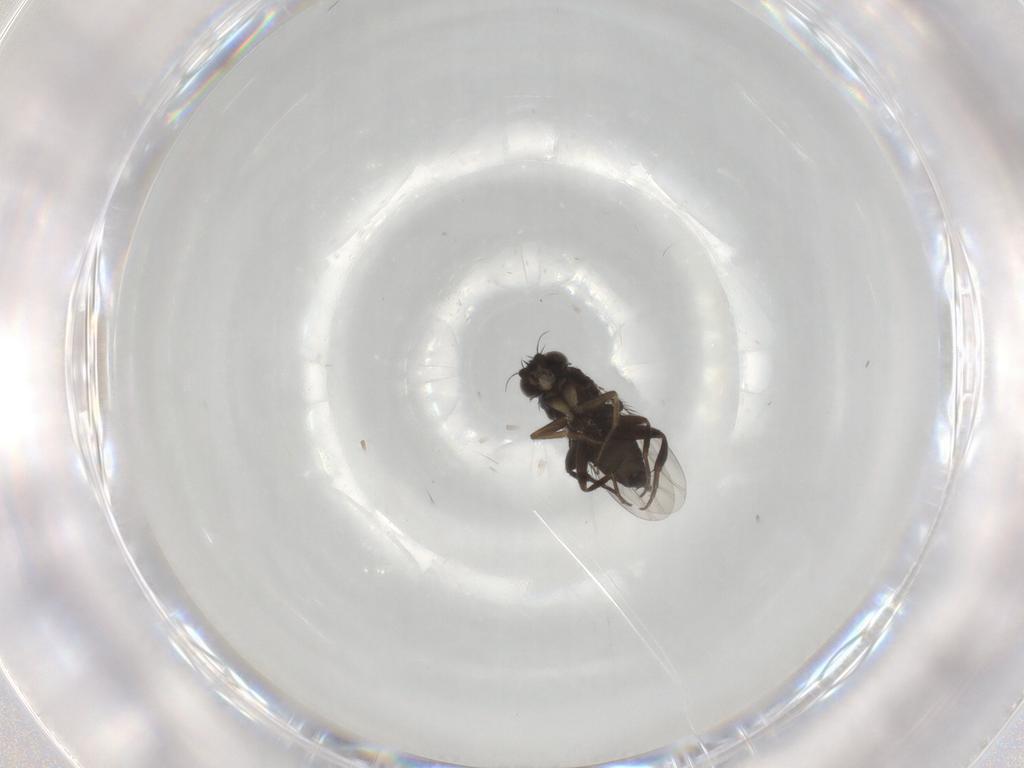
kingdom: Animalia
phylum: Arthropoda
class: Insecta
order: Diptera
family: Phoridae
